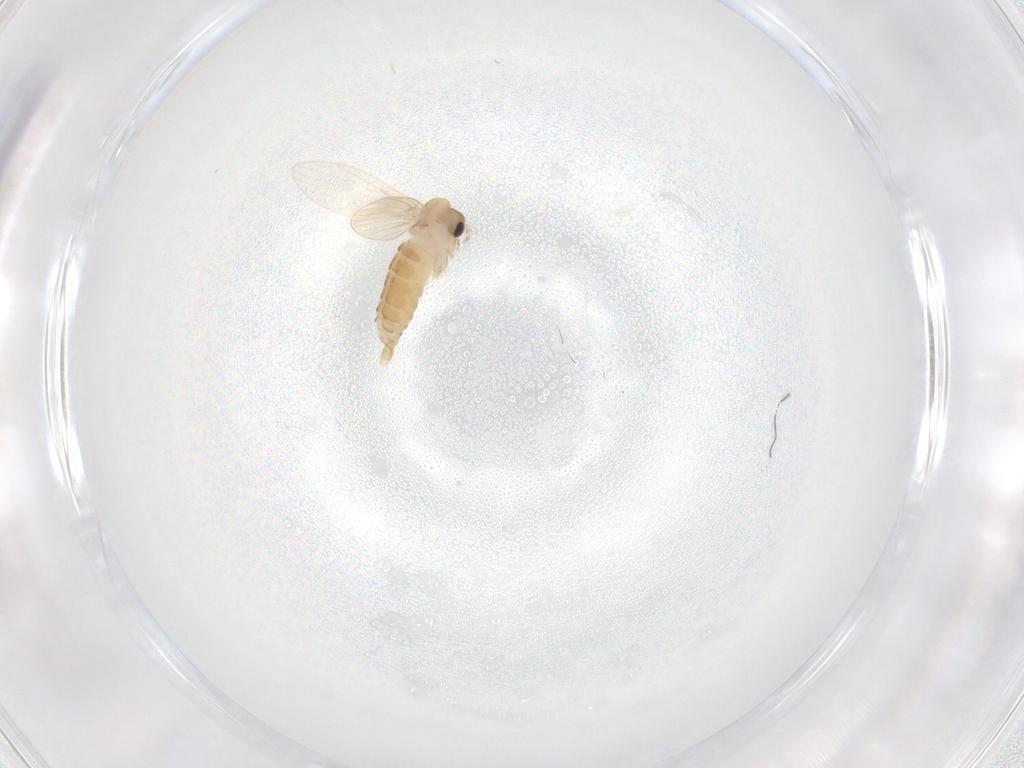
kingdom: Animalia
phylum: Arthropoda
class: Insecta
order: Diptera
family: Psychodidae
